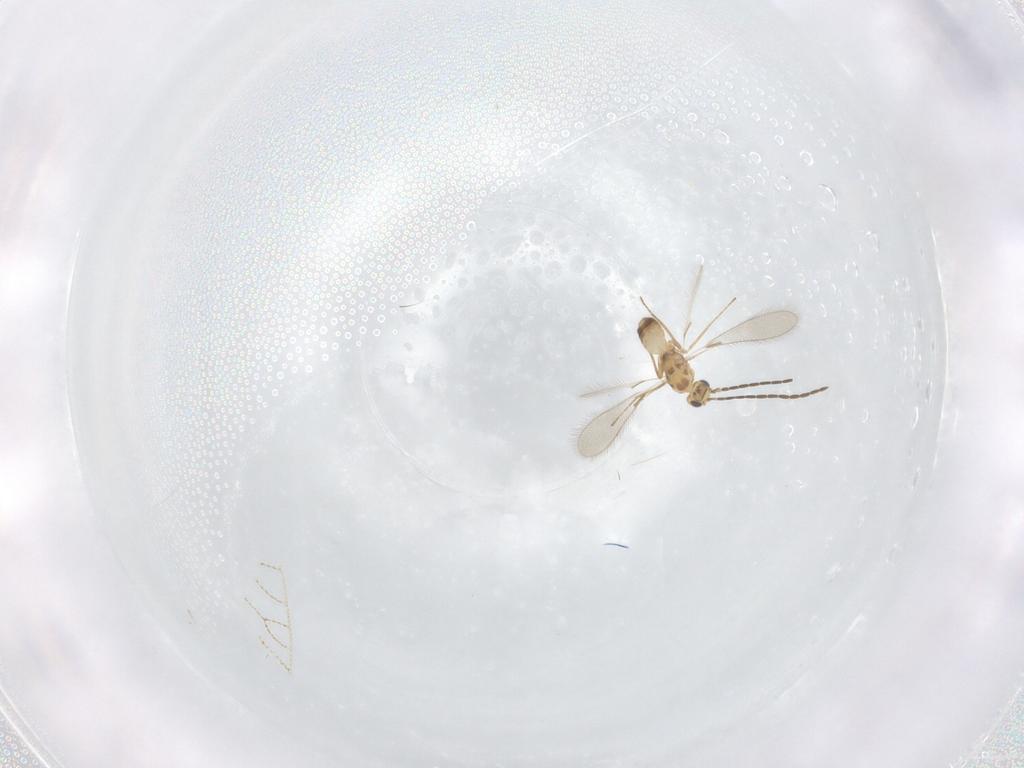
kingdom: Animalia
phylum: Arthropoda
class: Insecta
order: Hymenoptera
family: Mymaridae
